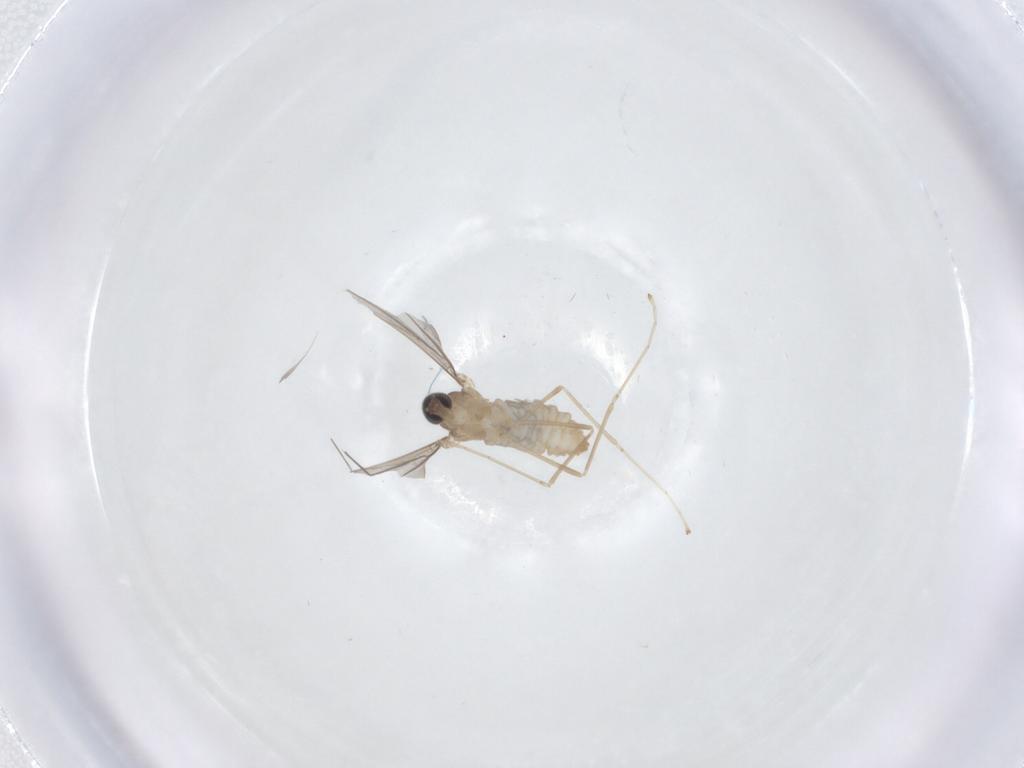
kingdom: Animalia
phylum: Arthropoda
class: Insecta
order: Diptera
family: Cecidomyiidae
